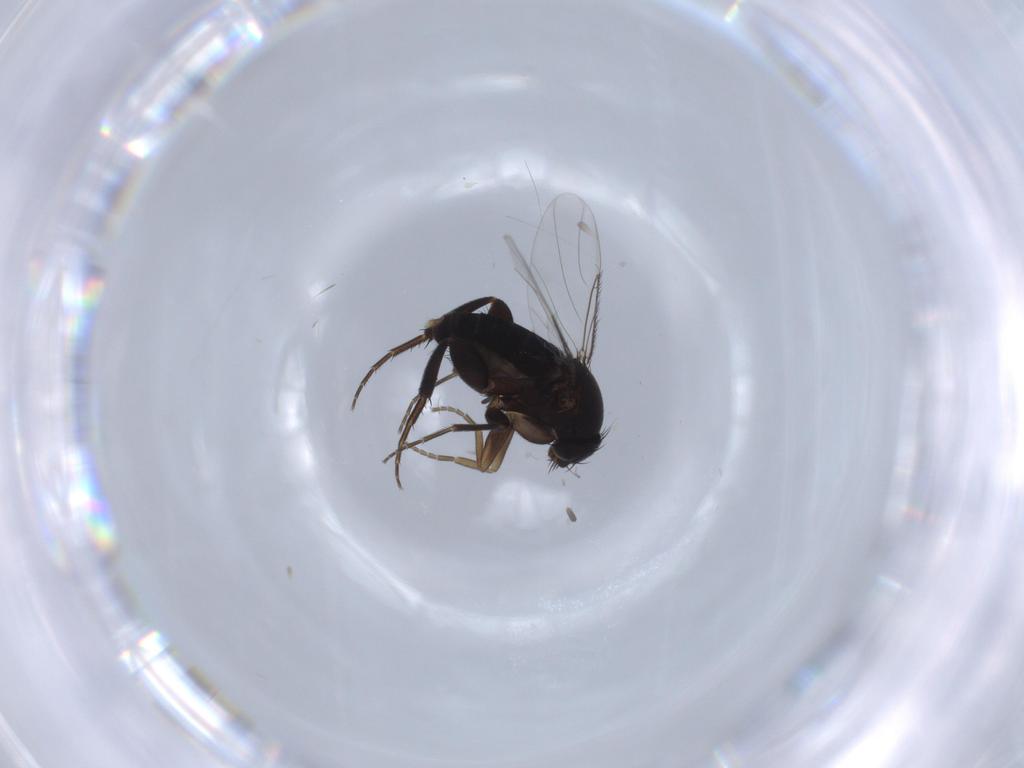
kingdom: Animalia
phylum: Arthropoda
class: Insecta
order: Diptera
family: Phoridae
